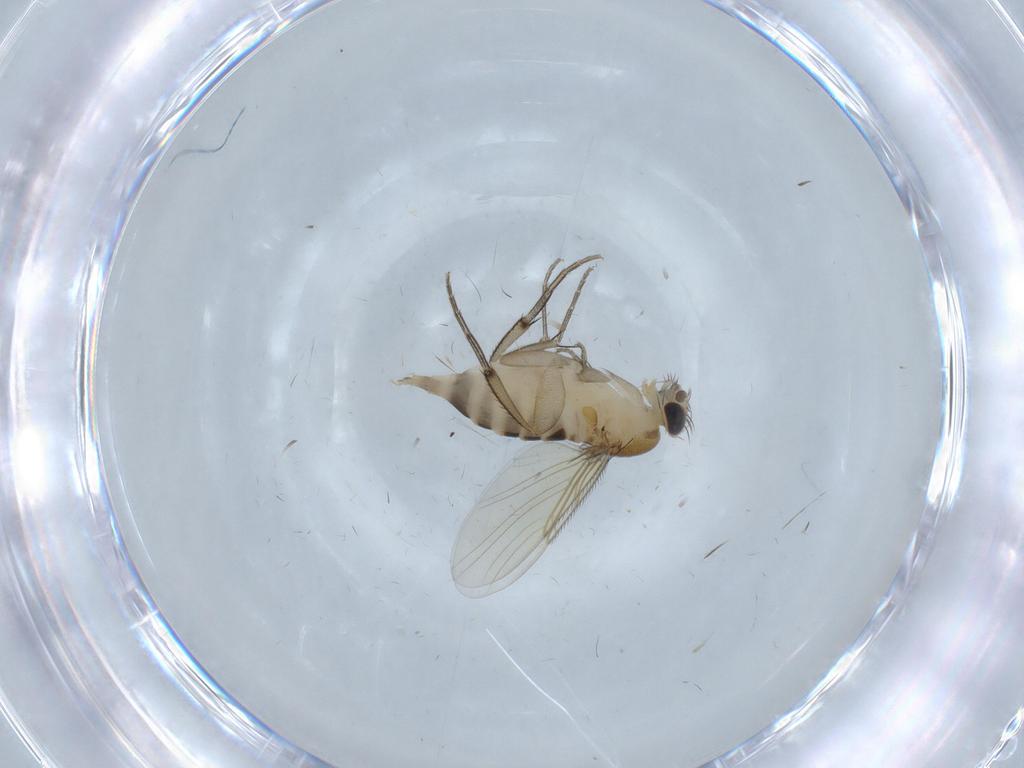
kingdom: Animalia
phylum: Arthropoda
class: Insecta
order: Diptera
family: Phoridae
